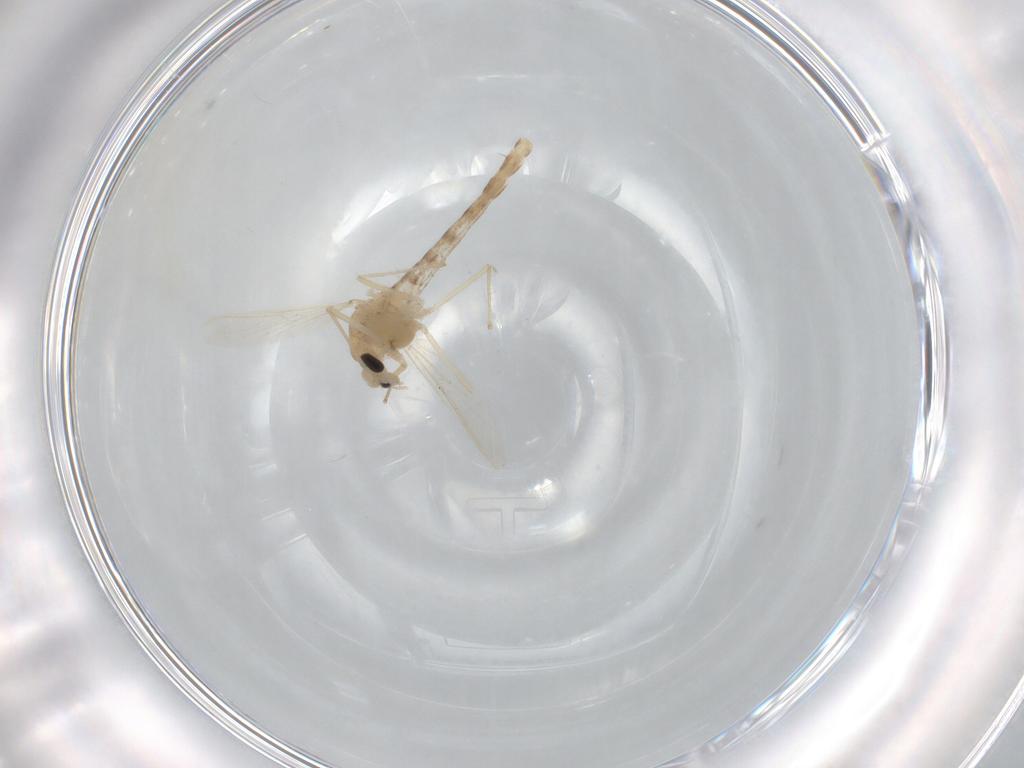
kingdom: Animalia
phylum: Arthropoda
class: Insecta
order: Diptera
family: Chironomidae
